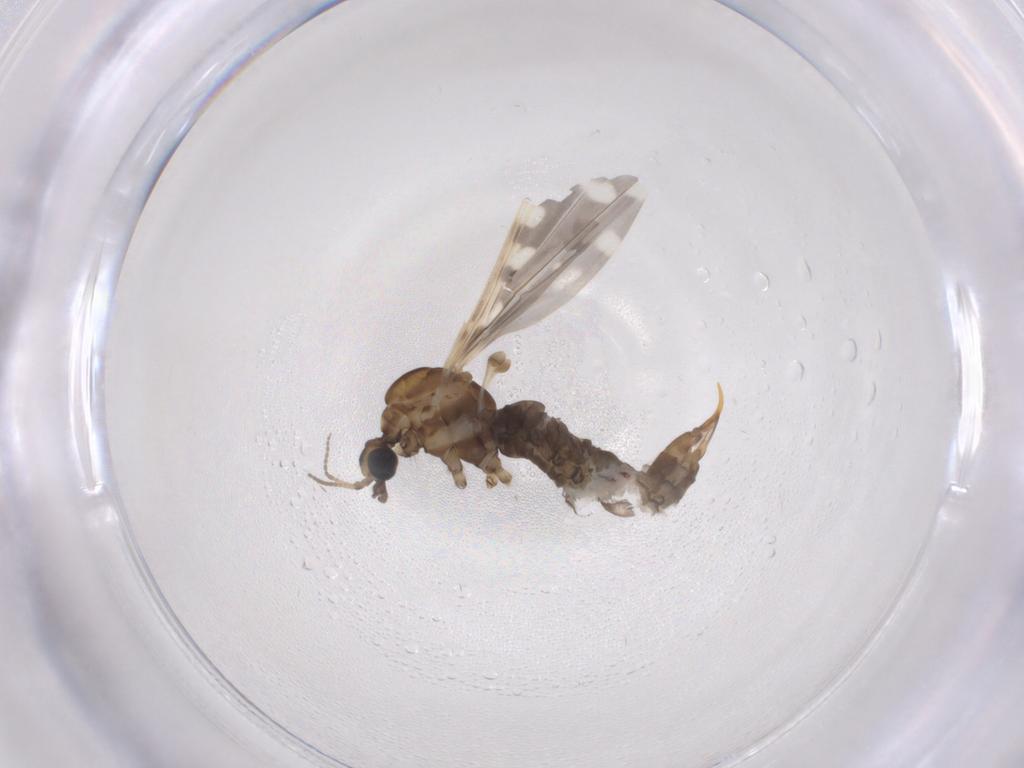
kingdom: Animalia
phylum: Arthropoda
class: Insecta
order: Diptera
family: Limoniidae
